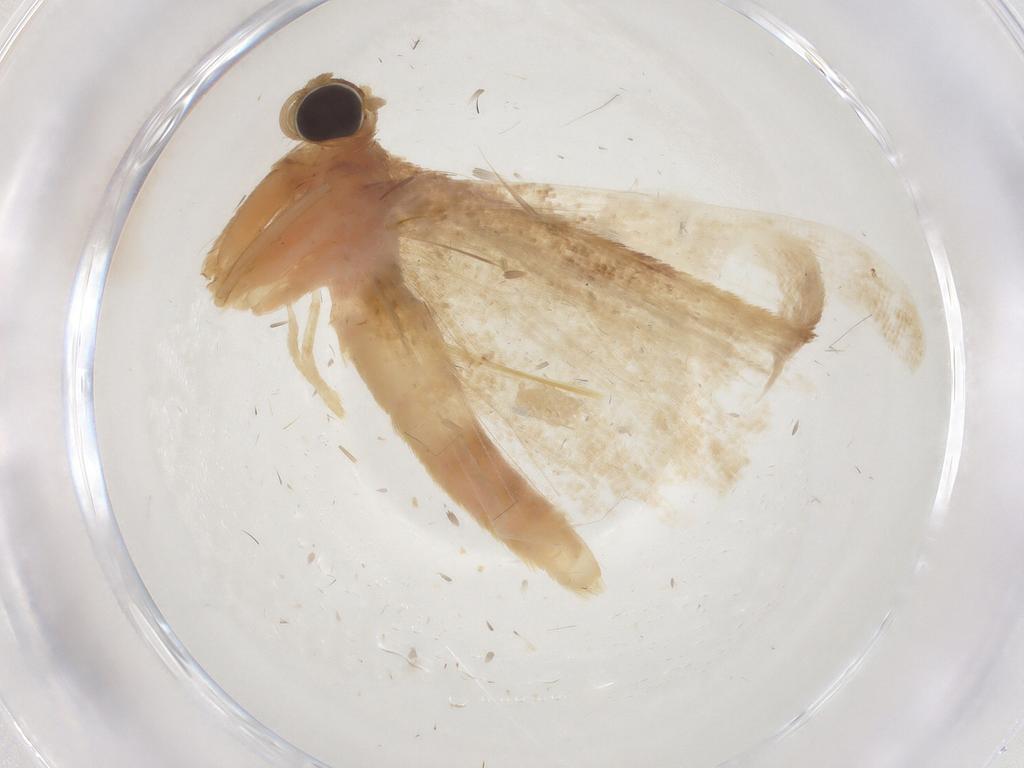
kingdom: Animalia
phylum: Arthropoda
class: Insecta
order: Lepidoptera
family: Geometridae
